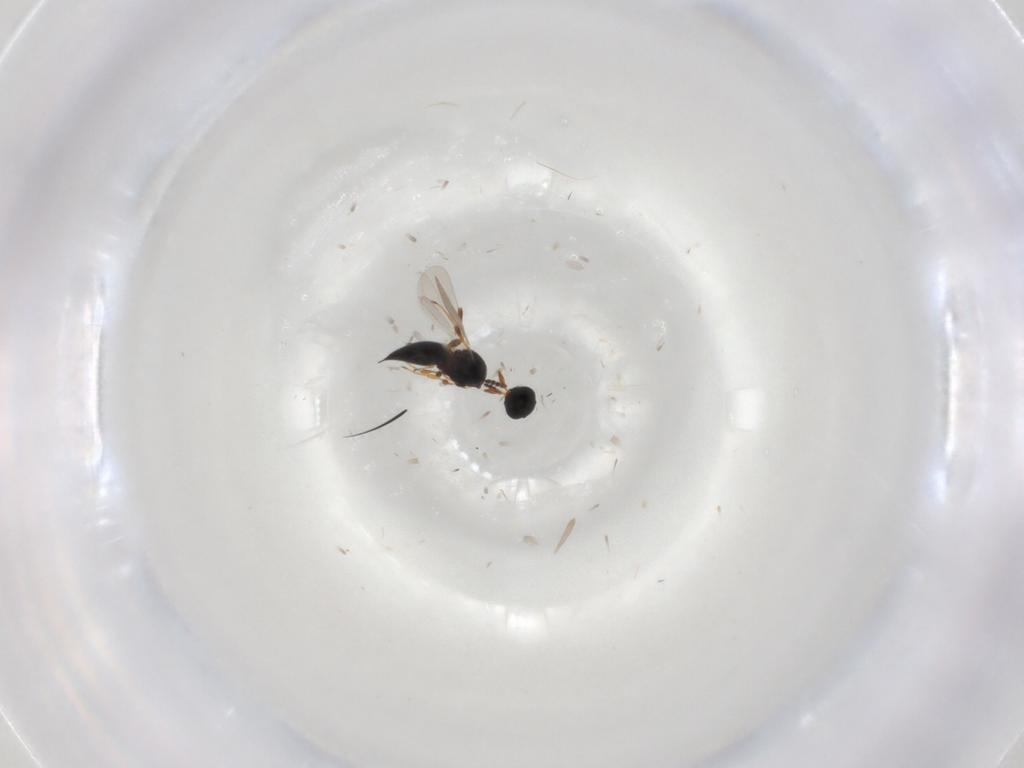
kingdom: Animalia
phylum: Arthropoda
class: Insecta
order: Hymenoptera
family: Platygastridae
